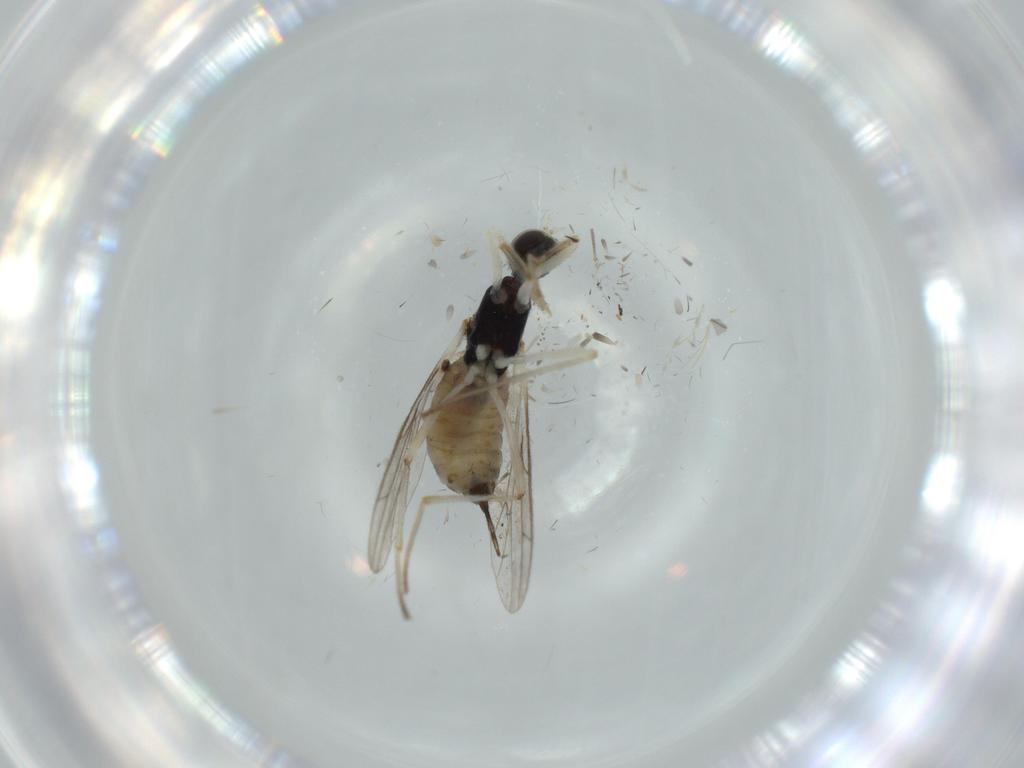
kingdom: Animalia
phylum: Arthropoda
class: Insecta
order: Diptera
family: Empididae
